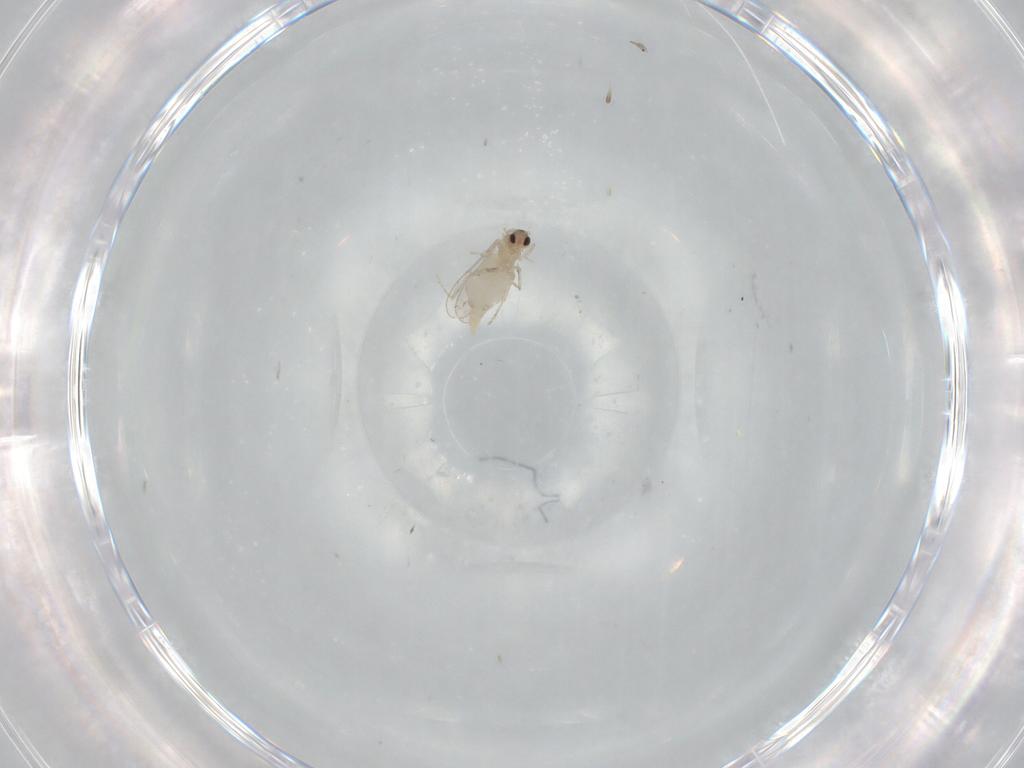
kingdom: Animalia
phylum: Arthropoda
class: Insecta
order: Diptera
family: Cecidomyiidae
